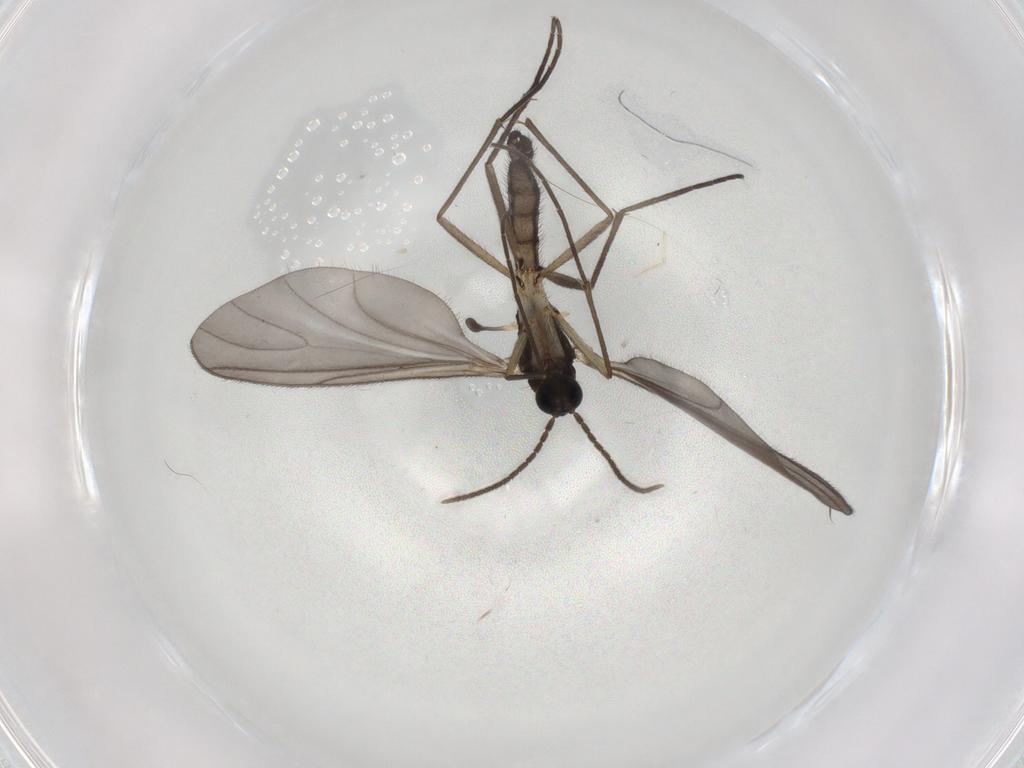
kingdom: Animalia
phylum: Arthropoda
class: Insecta
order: Diptera
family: Sciaridae
